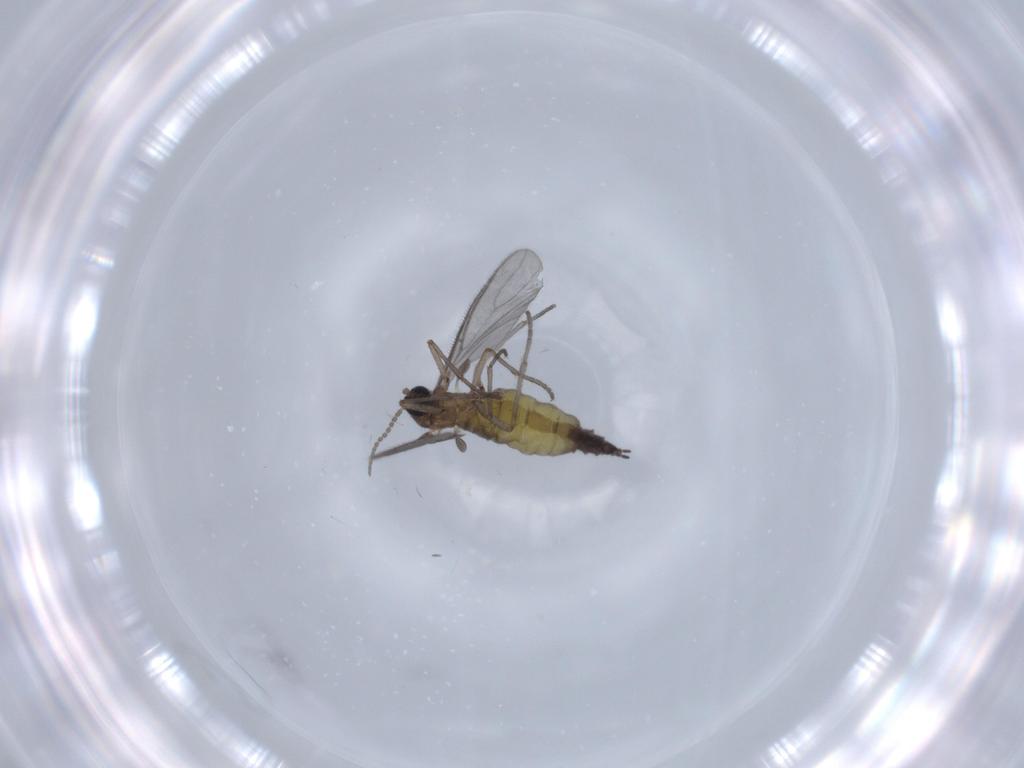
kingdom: Animalia
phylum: Arthropoda
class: Insecta
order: Diptera
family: Sciaridae
